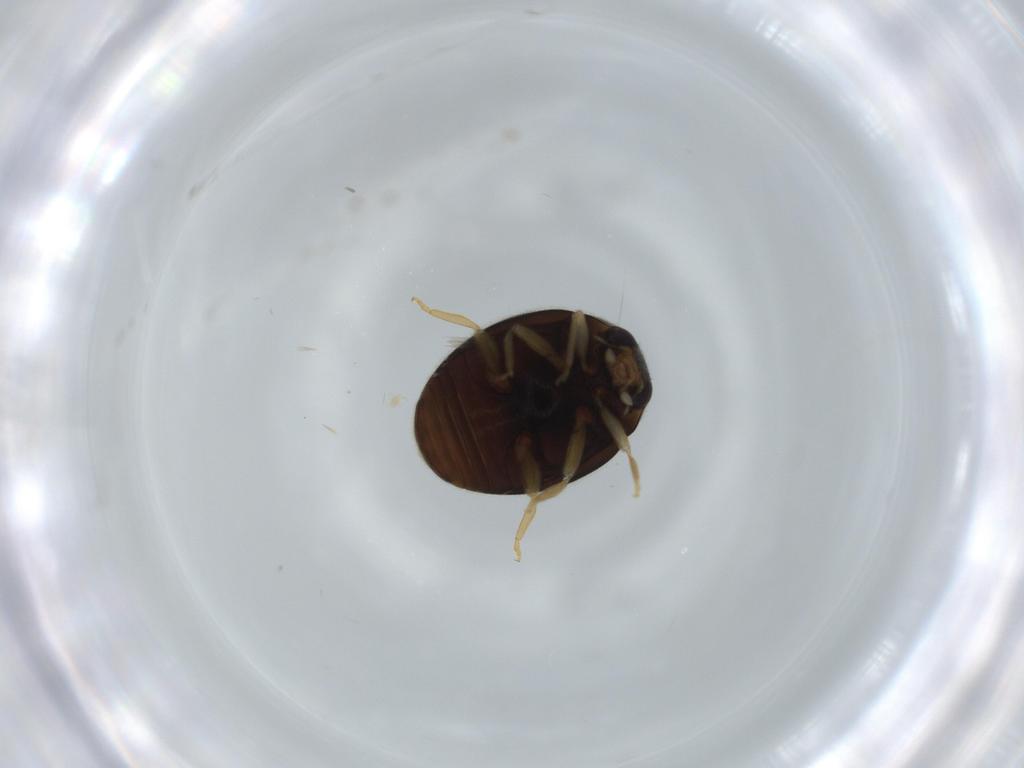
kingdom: Animalia
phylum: Arthropoda
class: Insecta
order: Coleoptera
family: Coccinellidae
